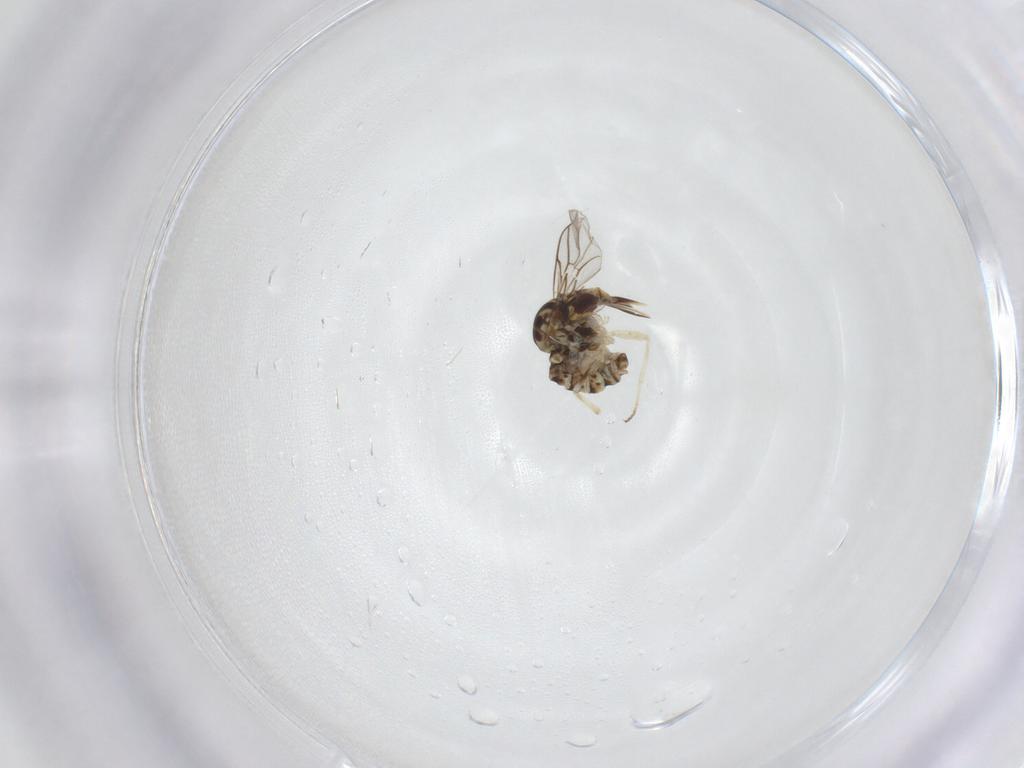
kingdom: Animalia
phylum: Arthropoda
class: Insecta
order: Diptera
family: Bombyliidae
